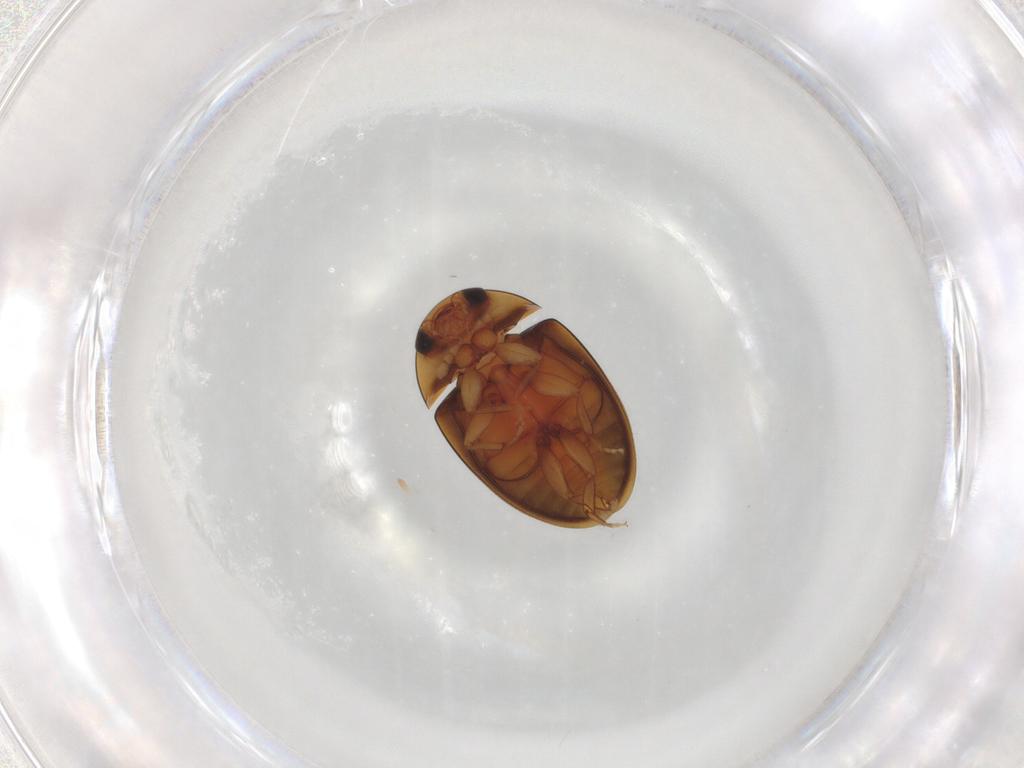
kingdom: Animalia
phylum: Arthropoda
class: Insecta
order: Coleoptera
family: Phalacridae
